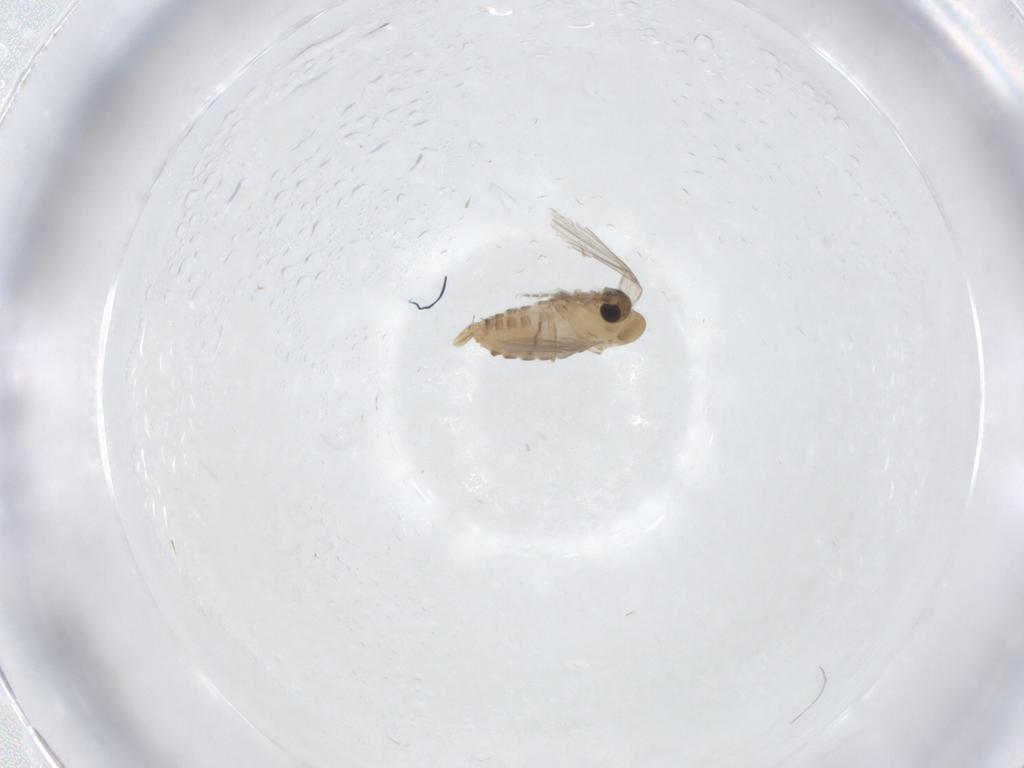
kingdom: Animalia
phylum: Arthropoda
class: Insecta
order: Diptera
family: Psychodidae
